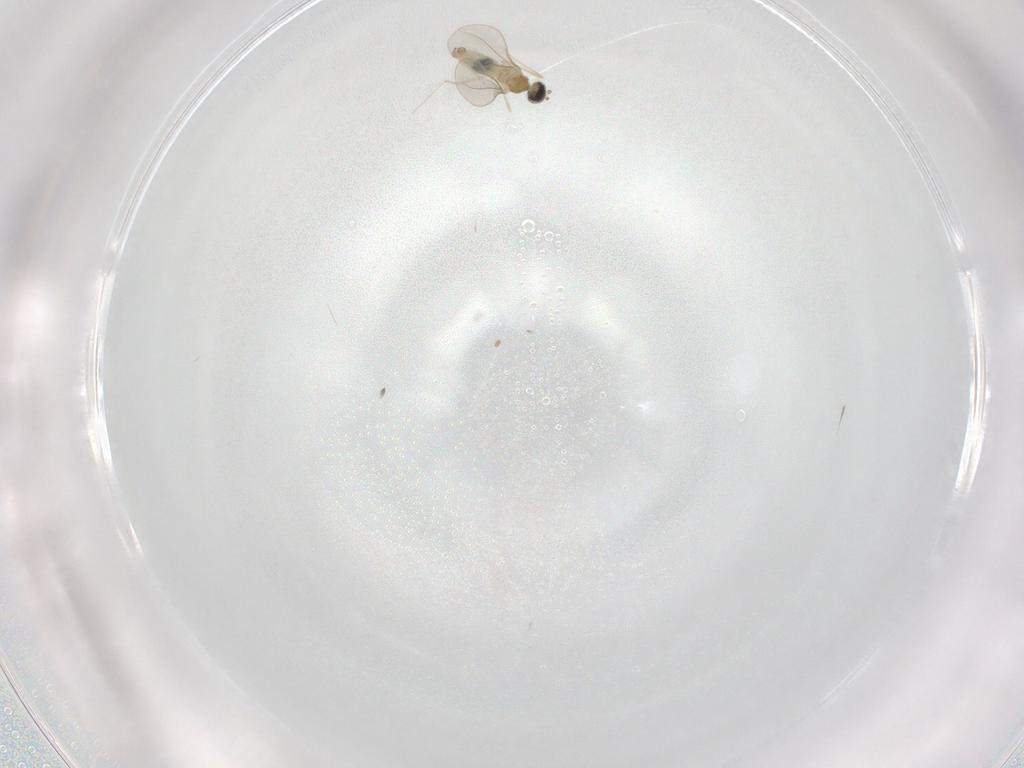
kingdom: Animalia
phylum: Arthropoda
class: Insecta
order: Diptera
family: Cecidomyiidae
